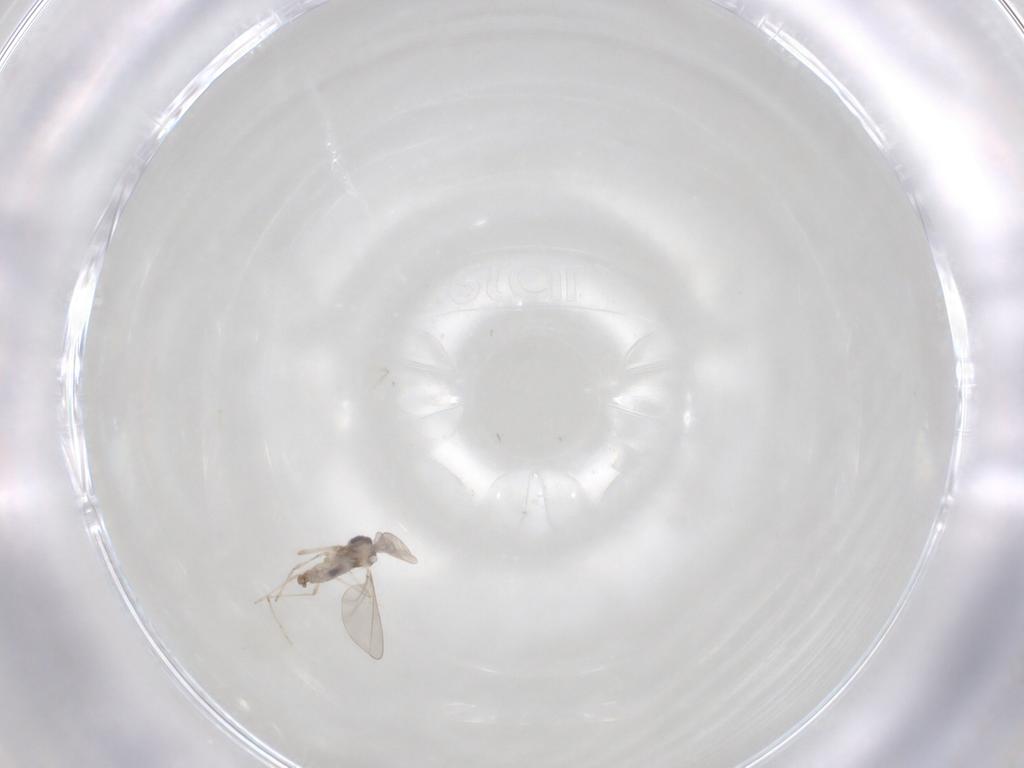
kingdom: Animalia
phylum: Arthropoda
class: Insecta
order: Diptera
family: Cecidomyiidae
